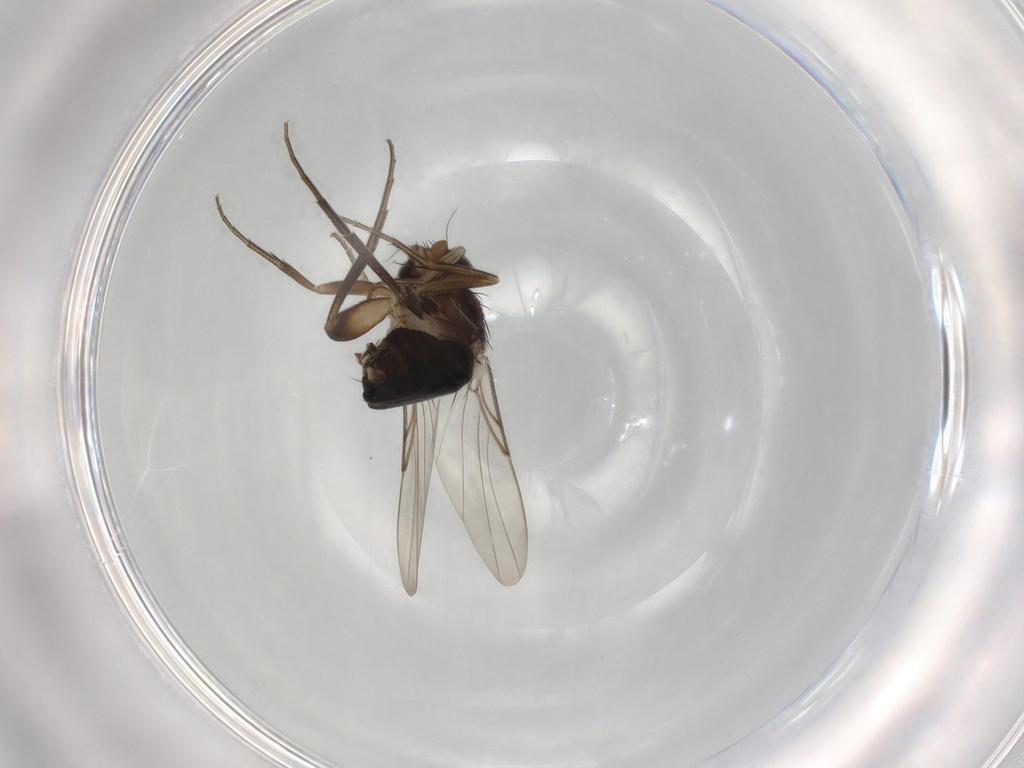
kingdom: Animalia
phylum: Arthropoda
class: Insecta
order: Diptera
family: Phoridae
